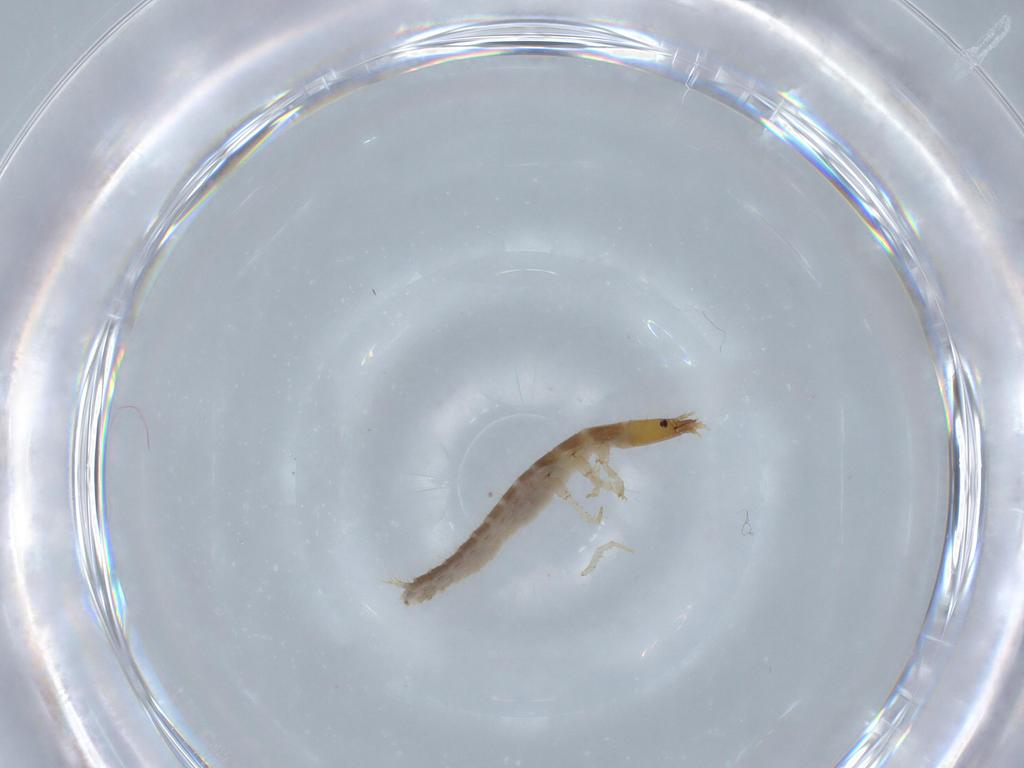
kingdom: Animalia
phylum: Arthropoda
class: Insecta
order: Coleoptera
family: Carabidae
